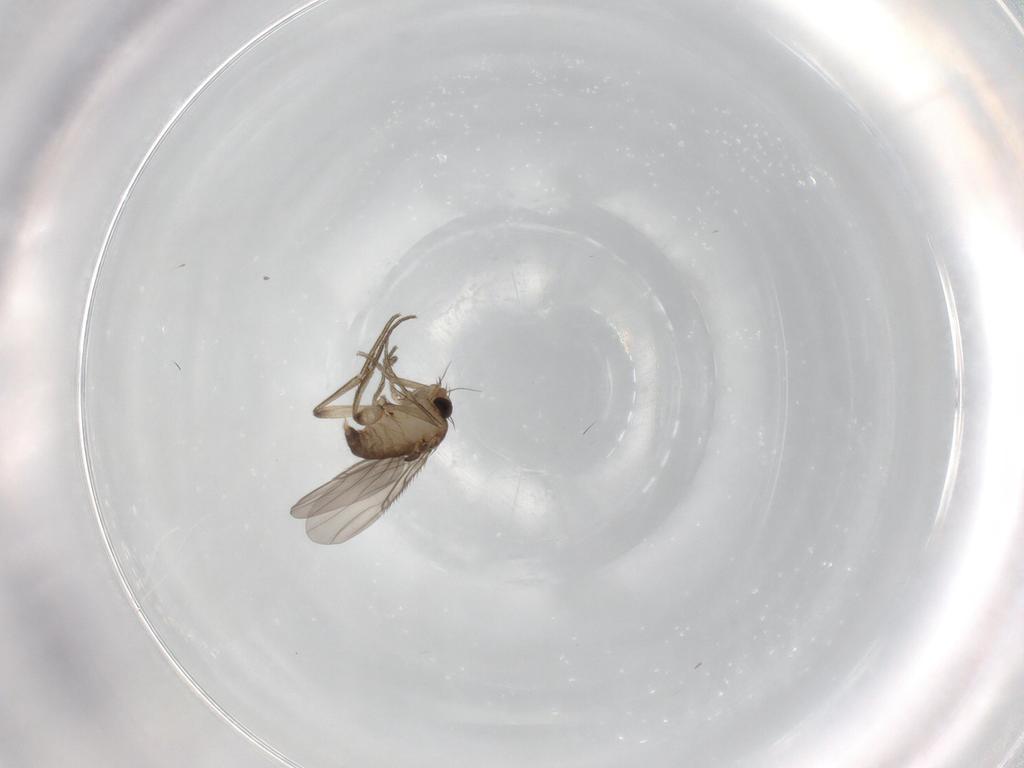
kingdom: Animalia
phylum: Arthropoda
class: Insecta
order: Diptera
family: Phoridae
